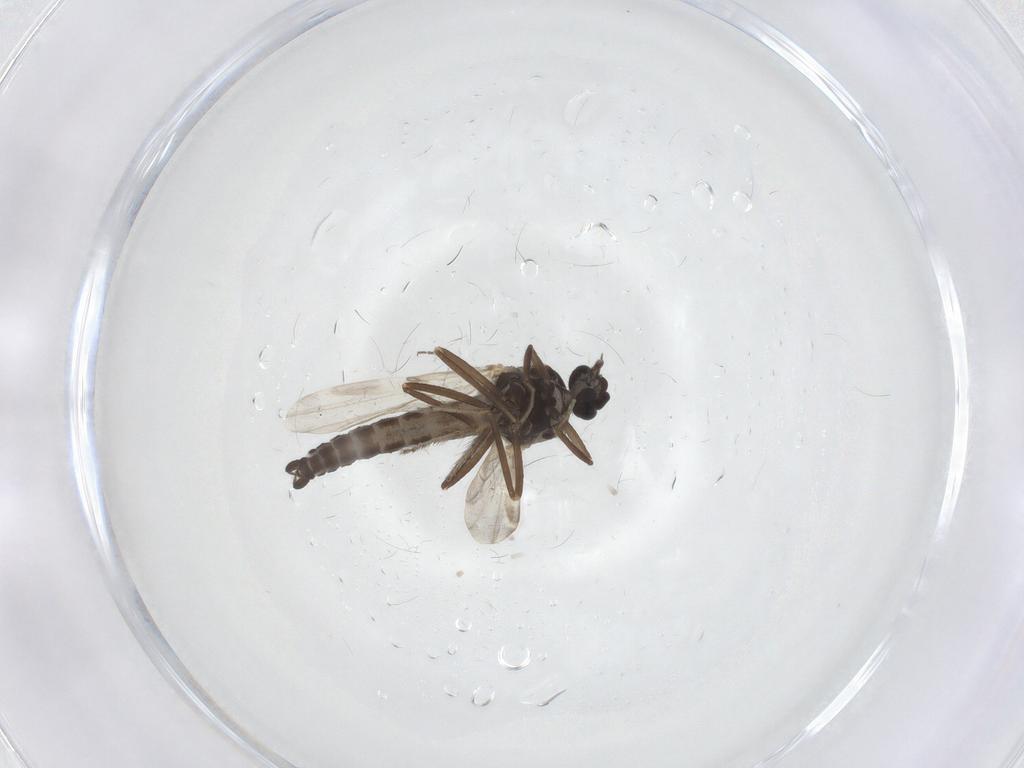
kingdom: Animalia
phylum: Arthropoda
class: Insecta
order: Diptera
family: Ceratopogonidae
